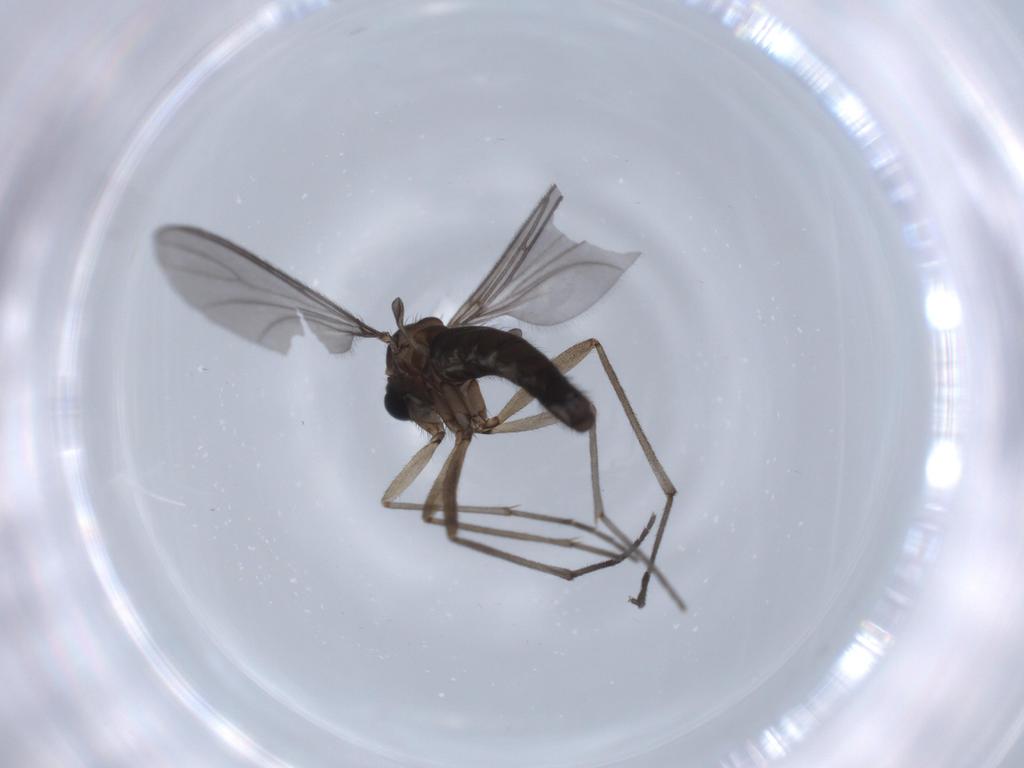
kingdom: Animalia
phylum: Arthropoda
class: Insecta
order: Diptera
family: Sciaridae
